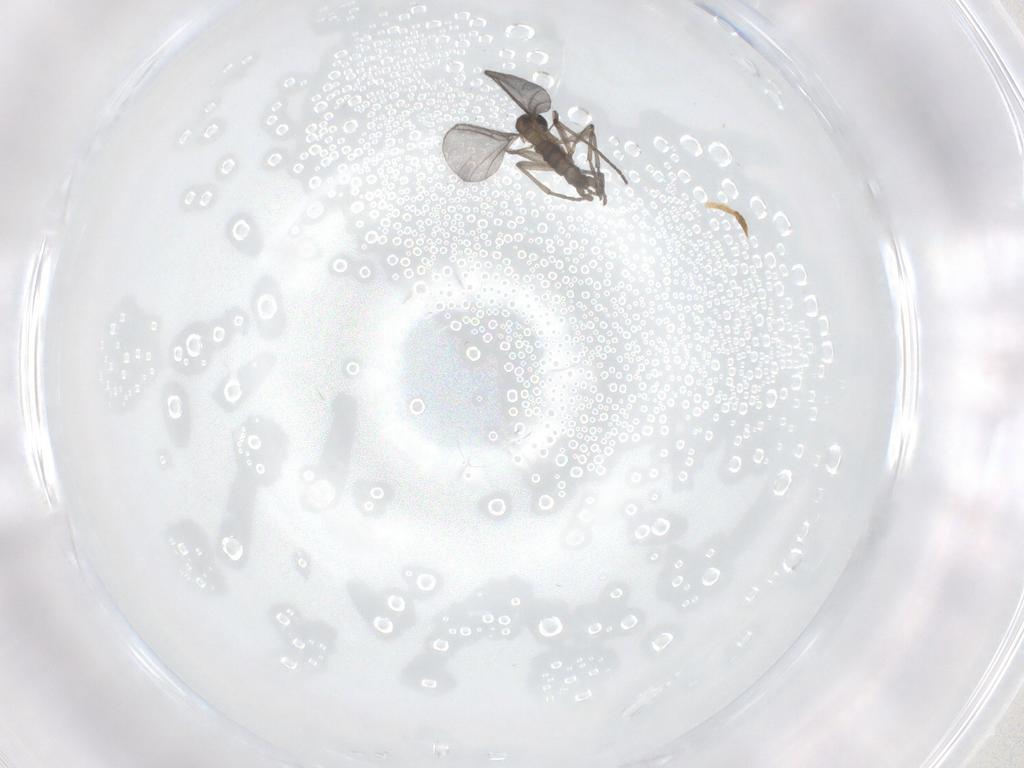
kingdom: Animalia
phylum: Arthropoda
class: Insecta
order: Diptera
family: Sciaridae
